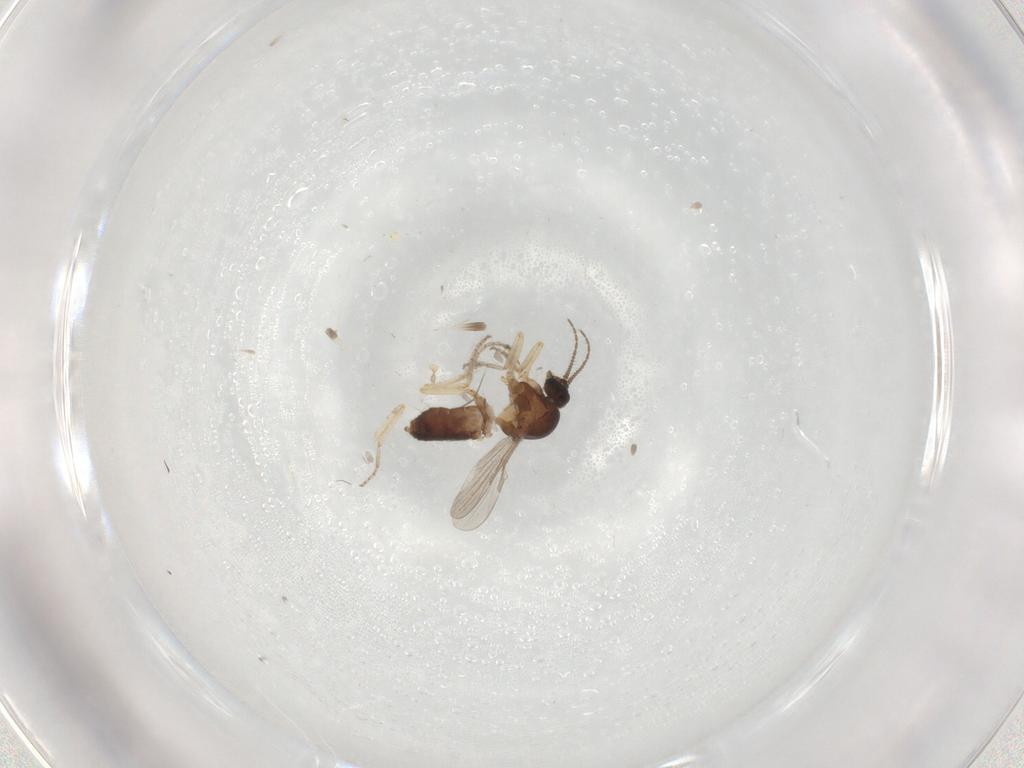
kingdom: Animalia
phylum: Arthropoda
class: Insecta
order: Diptera
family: Ceratopogonidae
